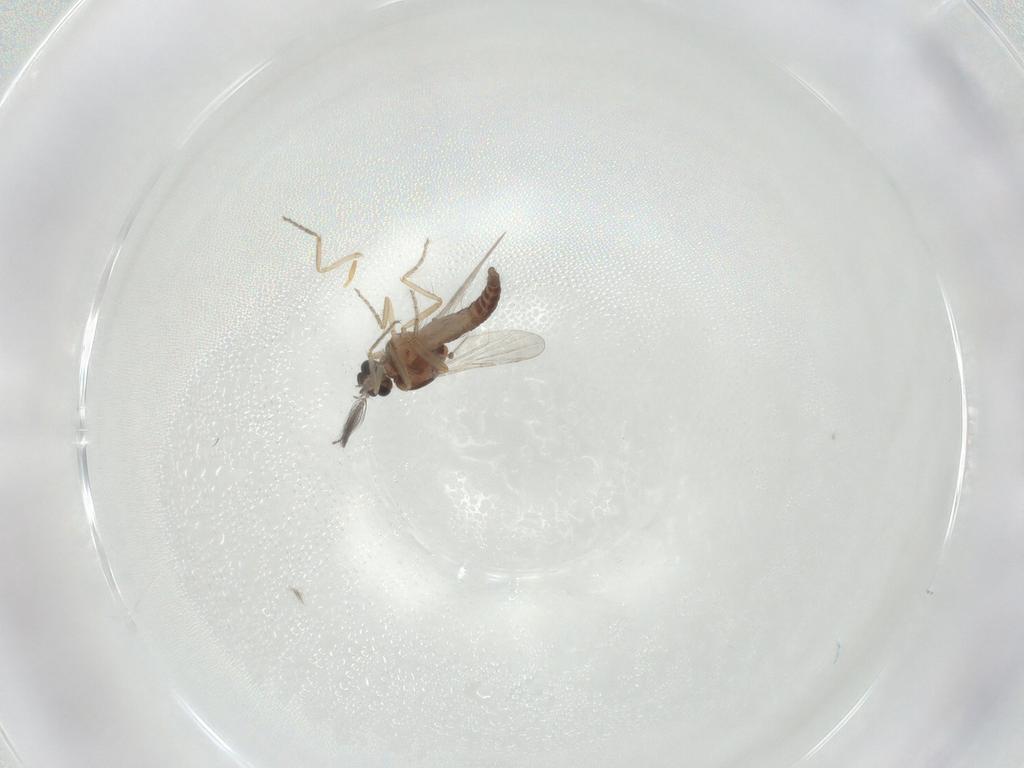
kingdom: Animalia
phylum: Arthropoda
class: Insecta
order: Diptera
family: Ceratopogonidae
